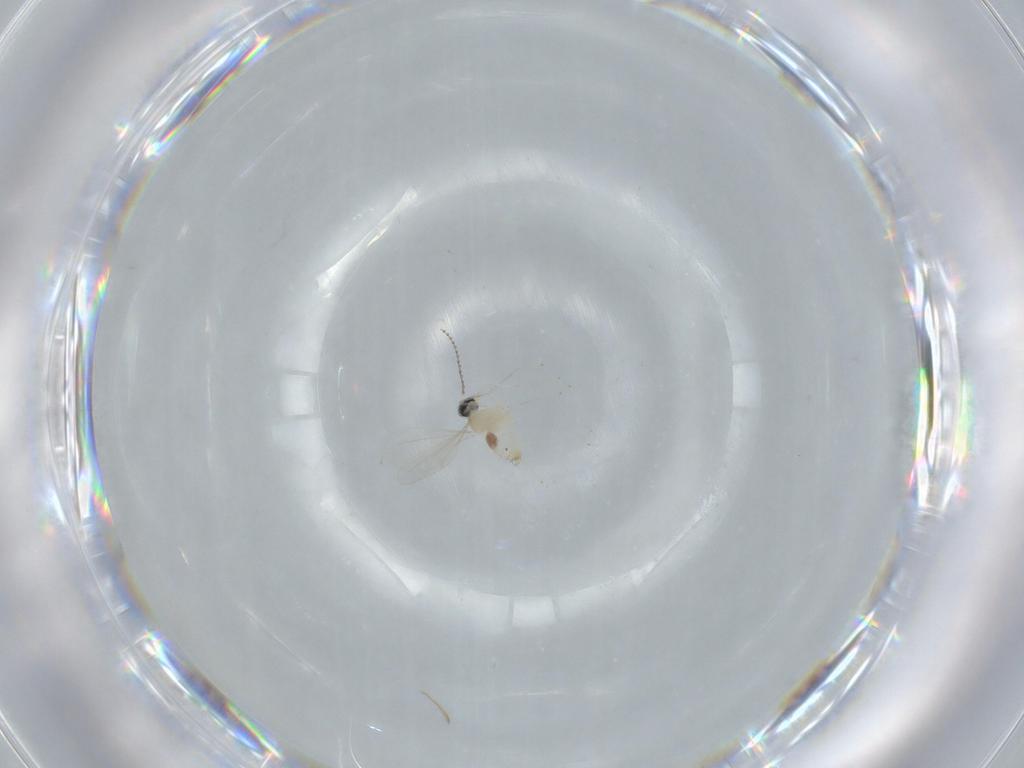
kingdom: Animalia
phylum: Arthropoda
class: Insecta
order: Diptera
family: Cecidomyiidae
